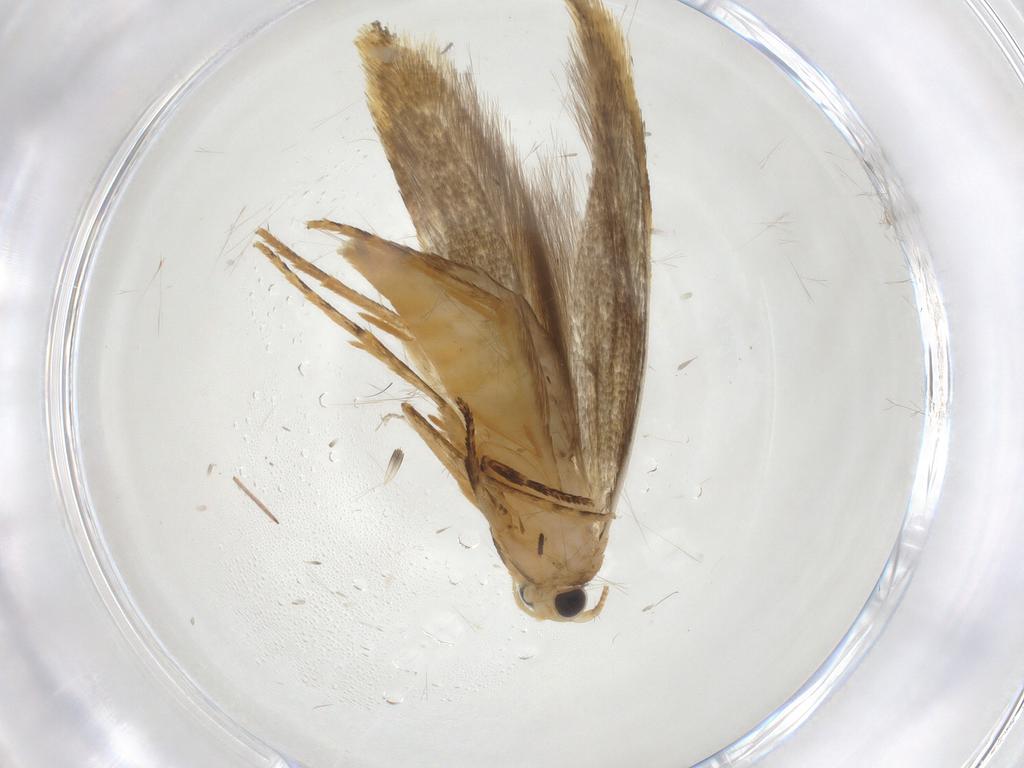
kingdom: Animalia
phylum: Arthropoda
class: Insecta
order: Lepidoptera
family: Tineidae
